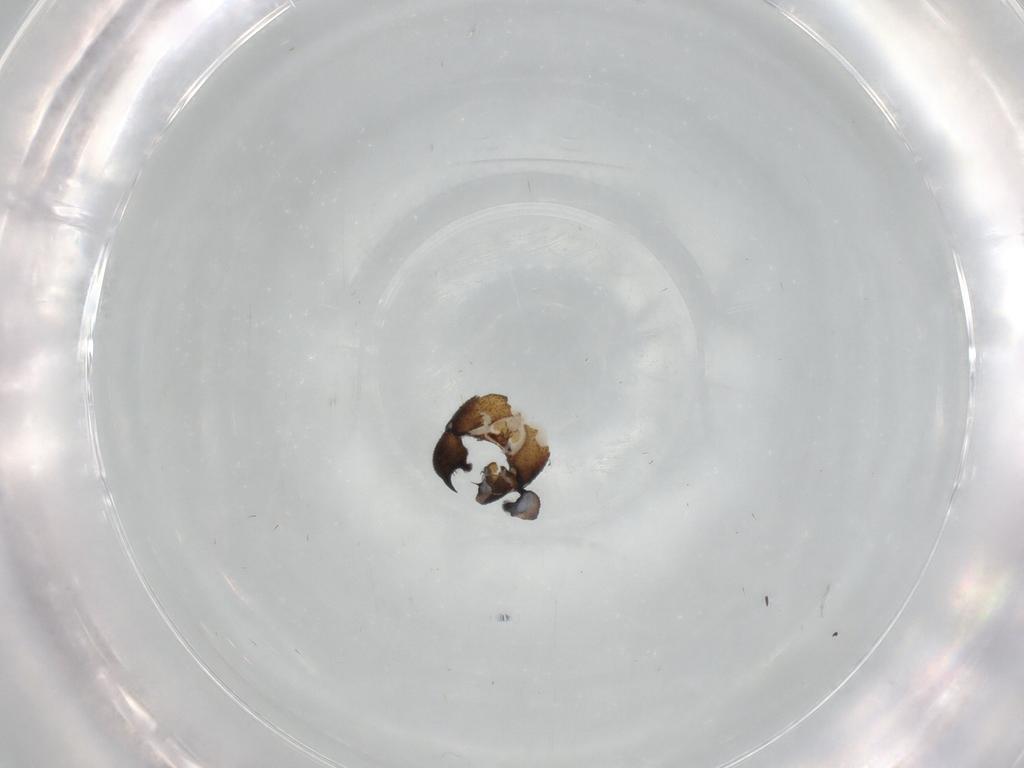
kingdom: Animalia
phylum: Arthropoda
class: Insecta
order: Diptera
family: Sciaridae
